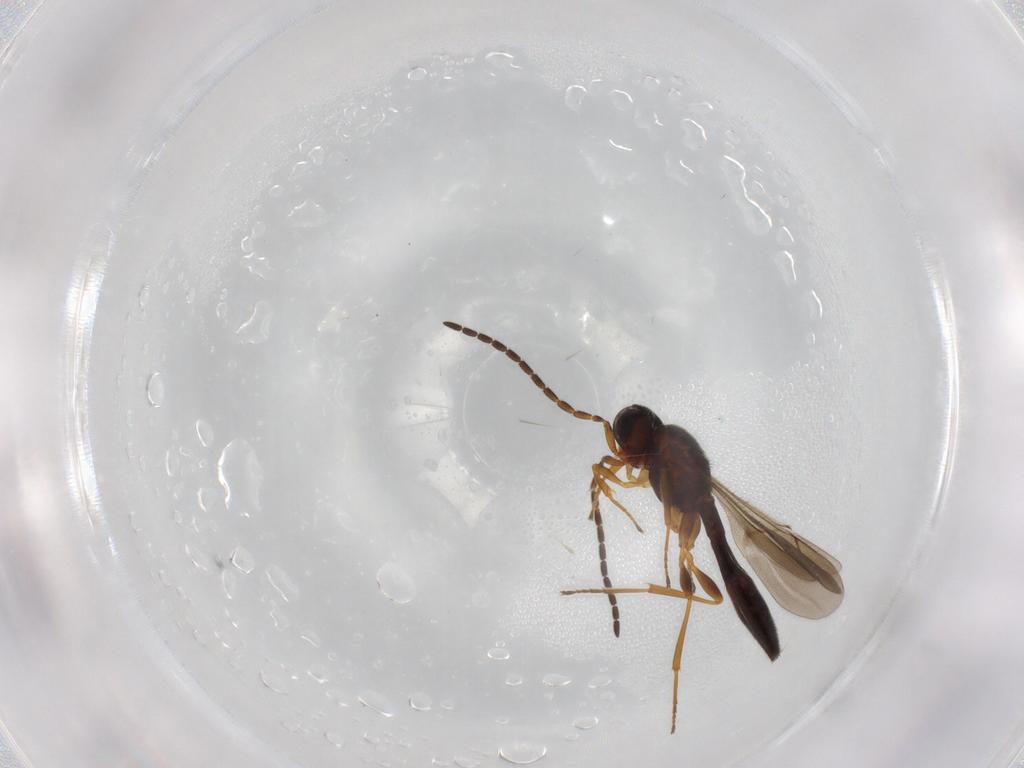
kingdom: Animalia
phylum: Arthropoda
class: Insecta
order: Hymenoptera
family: Scelionidae
